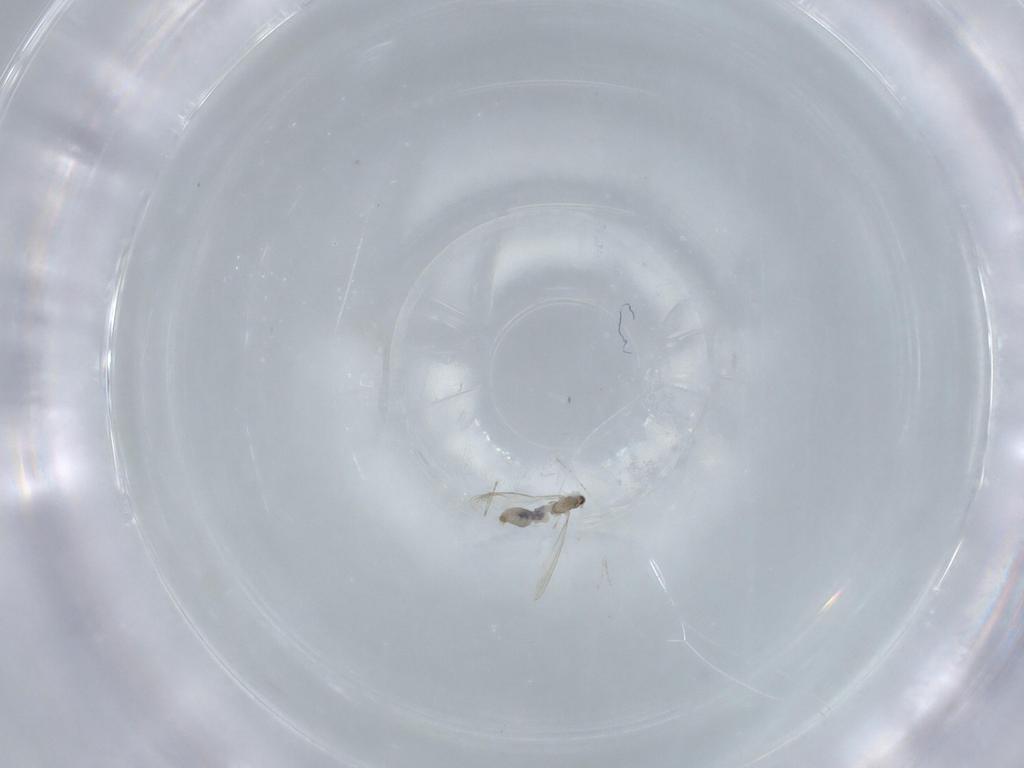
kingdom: Animalia
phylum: Arthropoda
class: Insecta
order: Diptera
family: Cecidomyiidae
